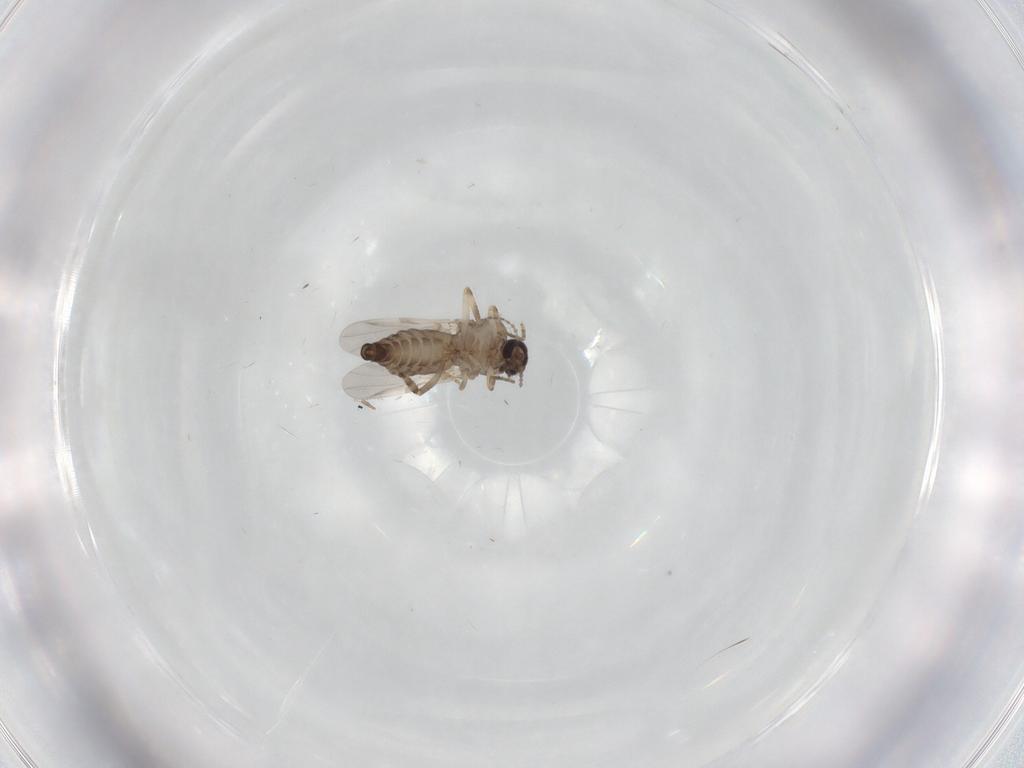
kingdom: Animalia
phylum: Arthropoda
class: Insecta
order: Diptera
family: Ceratopogonidae
